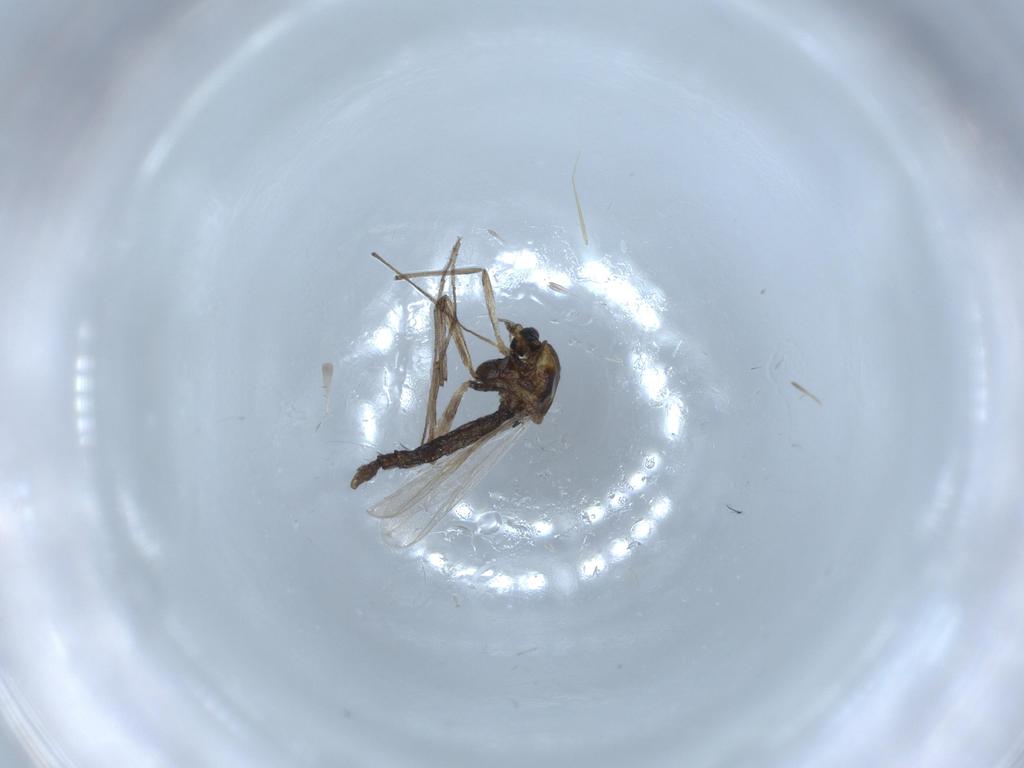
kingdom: Animalia
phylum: Arthropoda
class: Insecta
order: Diptera
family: Chironomidae
